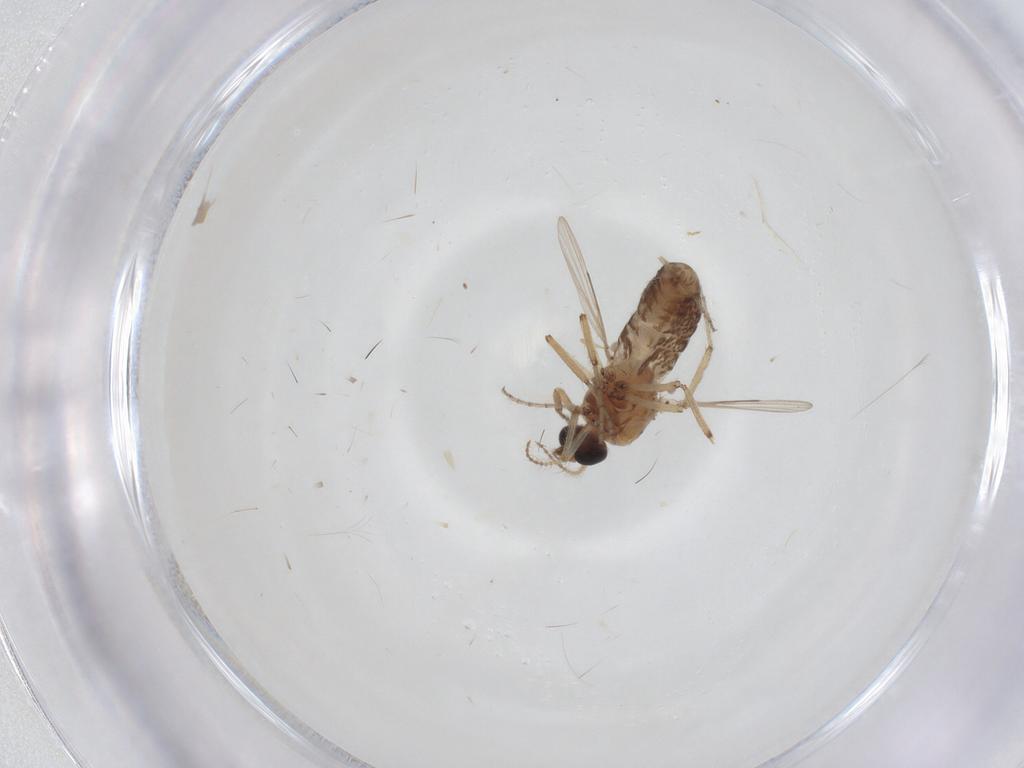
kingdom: Animalia
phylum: Arthropoda
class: Insecta
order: Diptera
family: Ceratopogonidae
